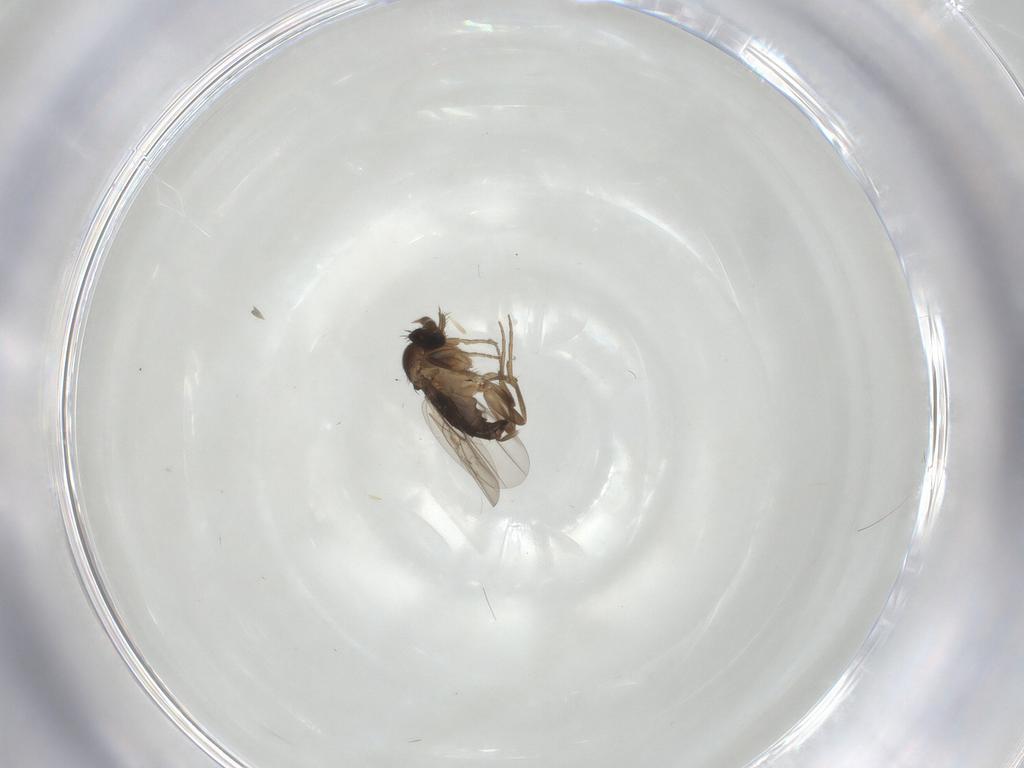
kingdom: Animalia
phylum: Arthropoda
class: Insecta
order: Diptera
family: Phoridae
